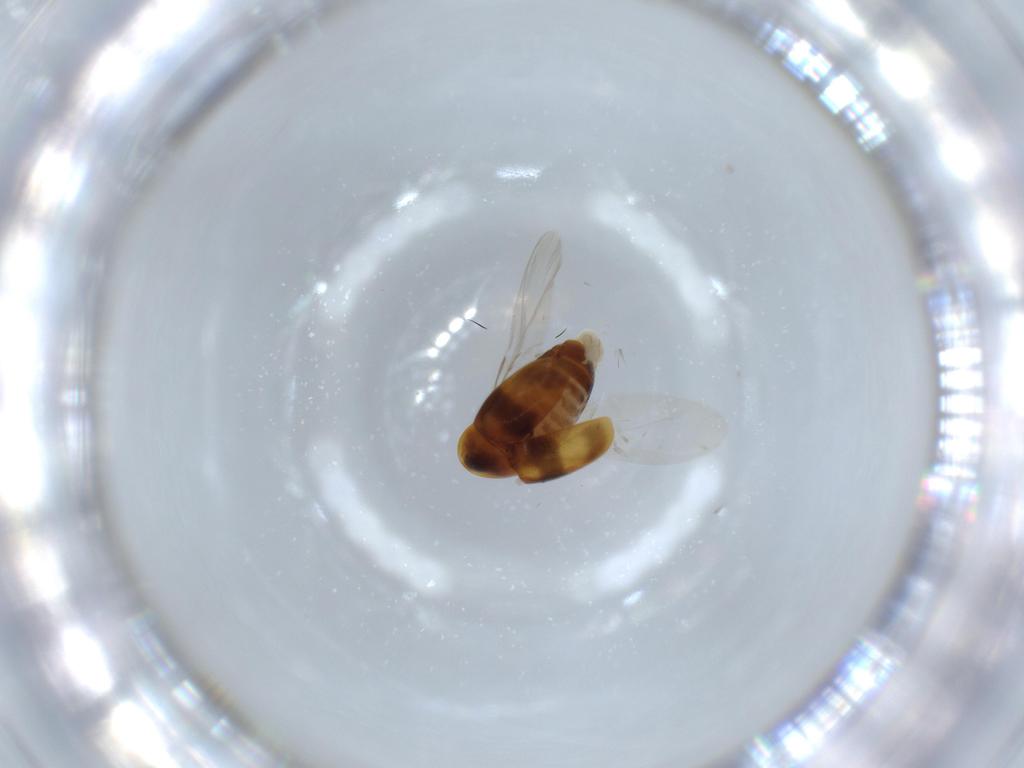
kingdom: Animalia
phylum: Arthropoda
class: Insecta
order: Coleoptera
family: Corylophidae
